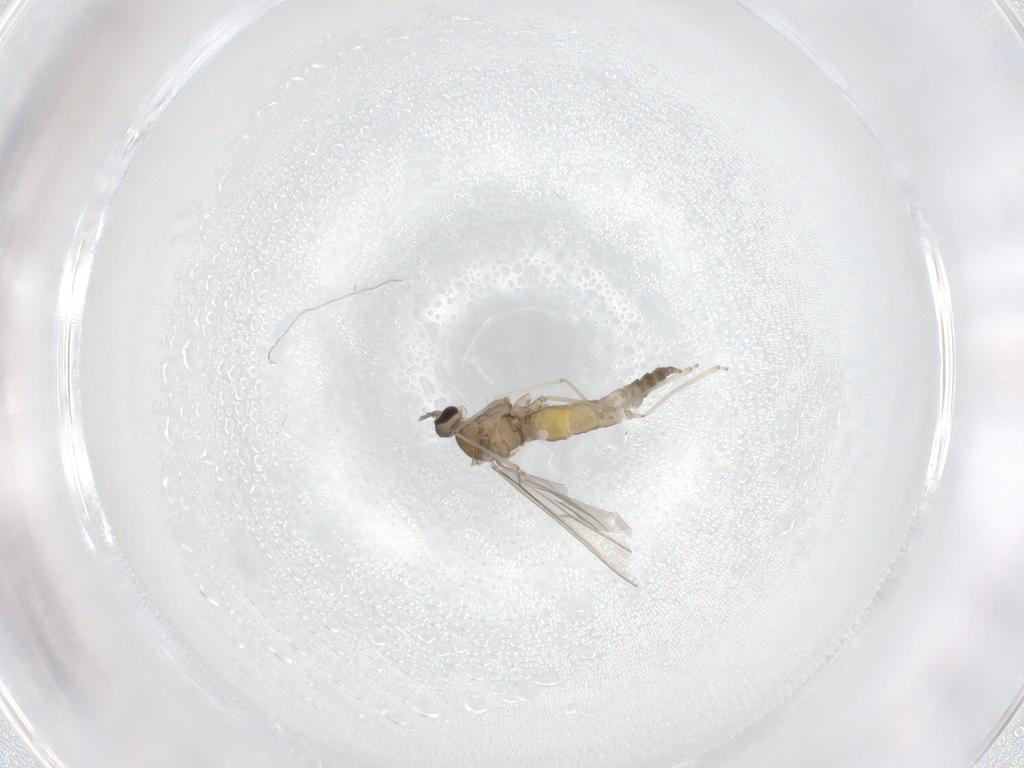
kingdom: Animalia
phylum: Arthropoda
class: Insecta
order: Diptera
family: Cecidomyiidae
